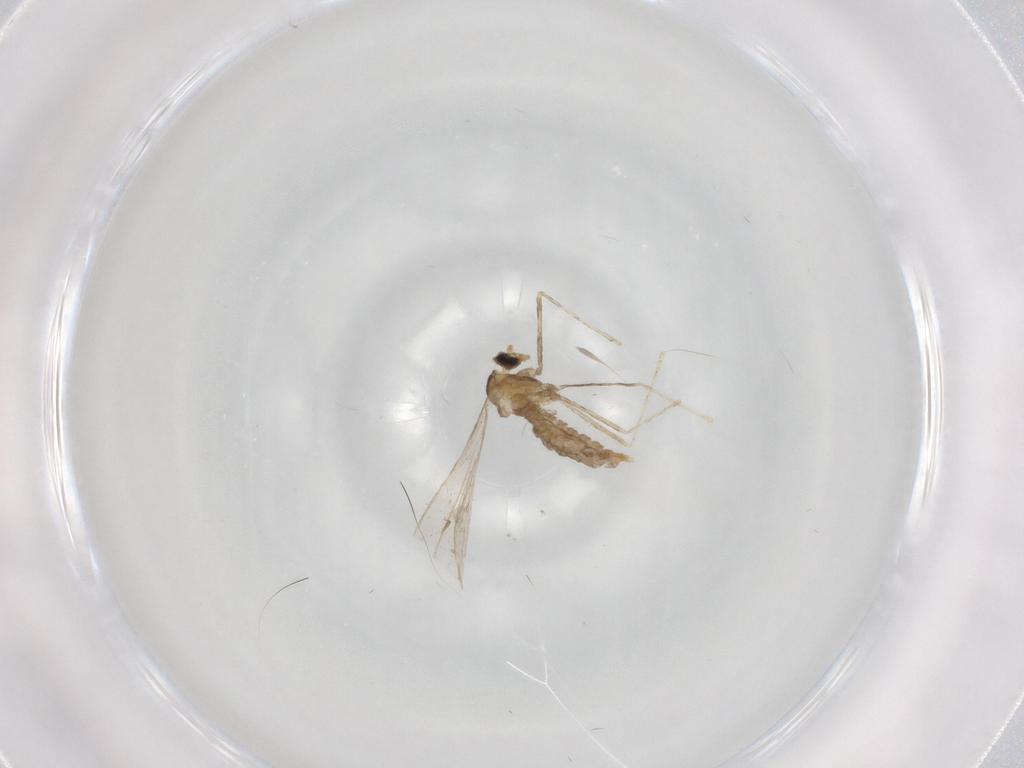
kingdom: Animalia
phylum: Arthropoda
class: Insecta
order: Diptera
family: Cecidomyiidae
